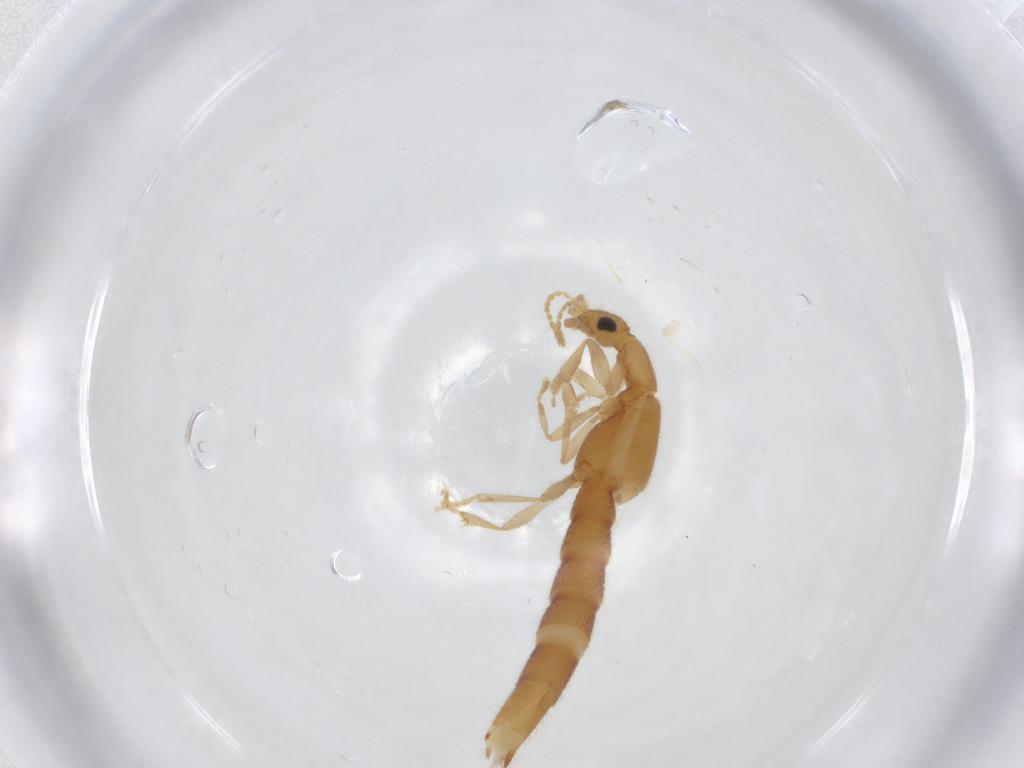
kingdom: Animalia
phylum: Arthropoda
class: Insecta
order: Coleoptera
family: Staphylinidae
